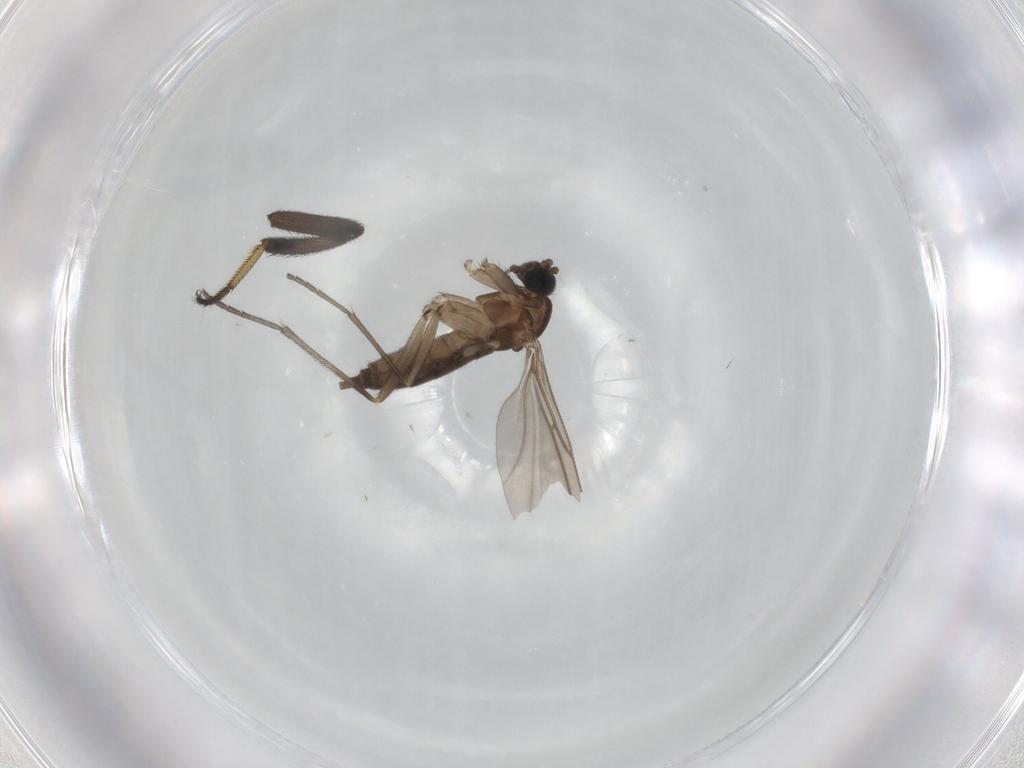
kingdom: Animalia
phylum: Arthropoda
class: Insecta
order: Diptera
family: Sciaridae
